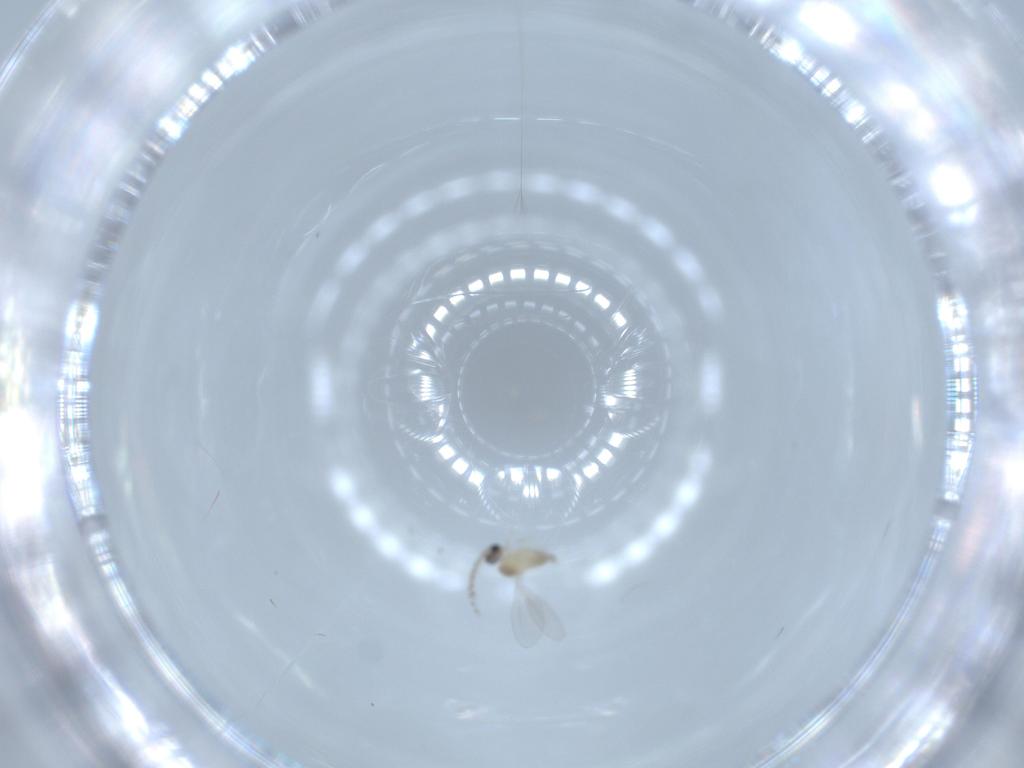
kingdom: Animalia
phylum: Arthropoda
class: Insecta
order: Diptera
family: Cecidomyiidae
